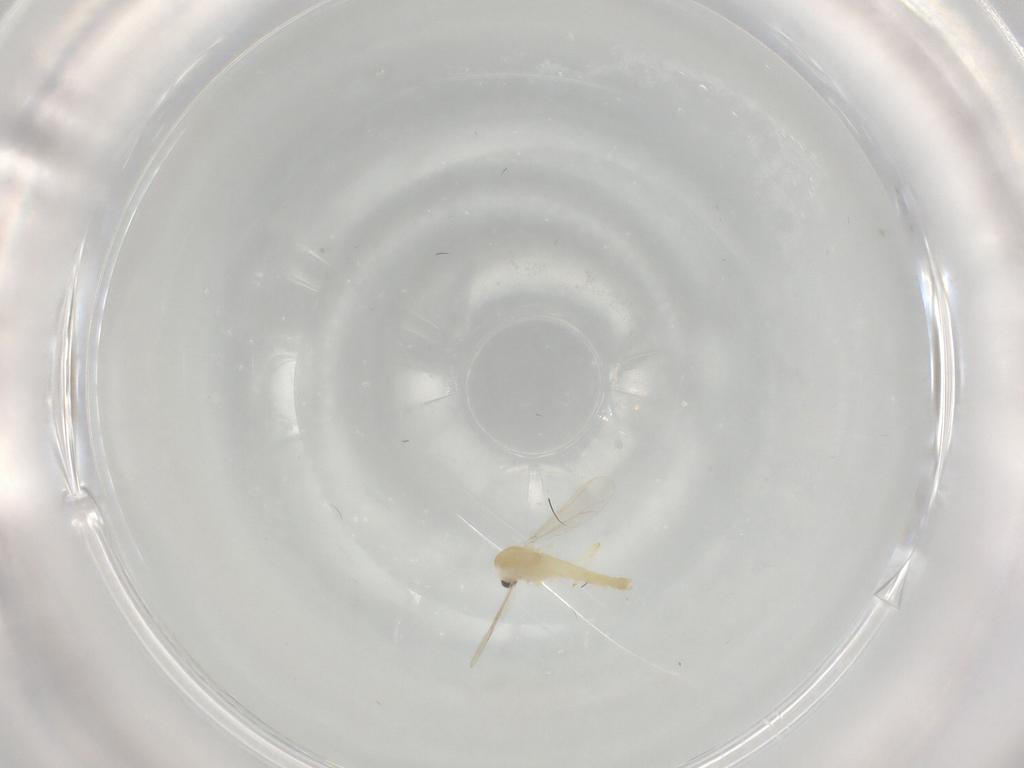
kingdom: Animalia
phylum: Arthropoda
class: Insecta
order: Diptera
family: Chironomidae
